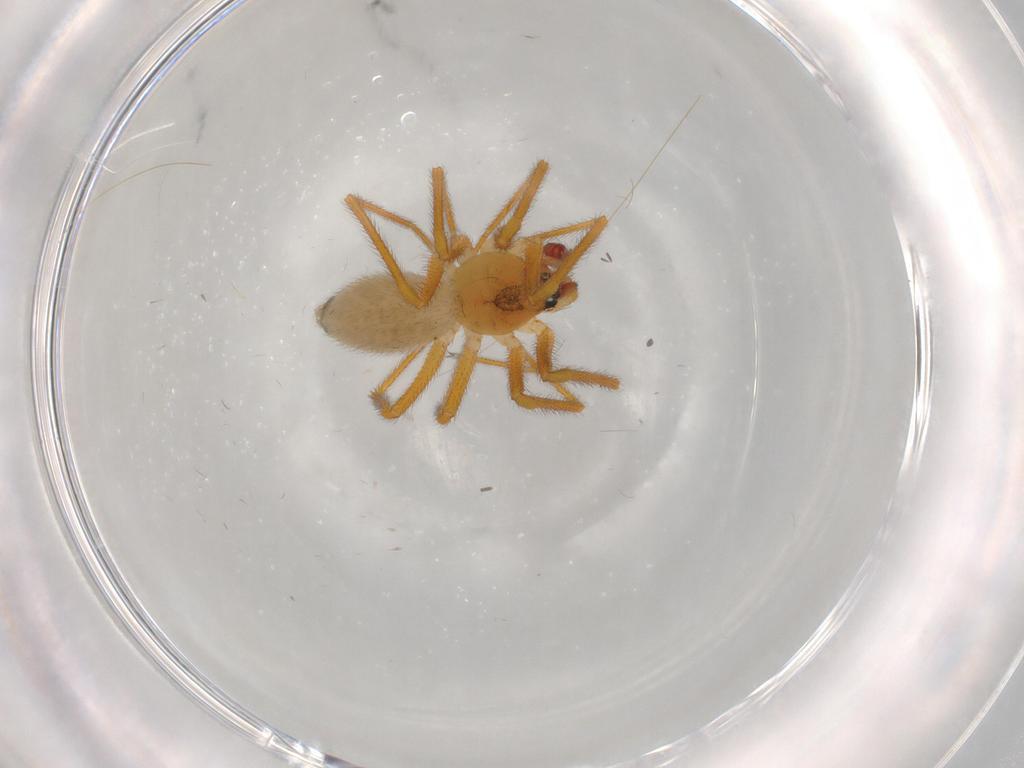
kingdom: Animalia
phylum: Arthropoda
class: Arachnida
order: Araneae
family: Linyphiidae
